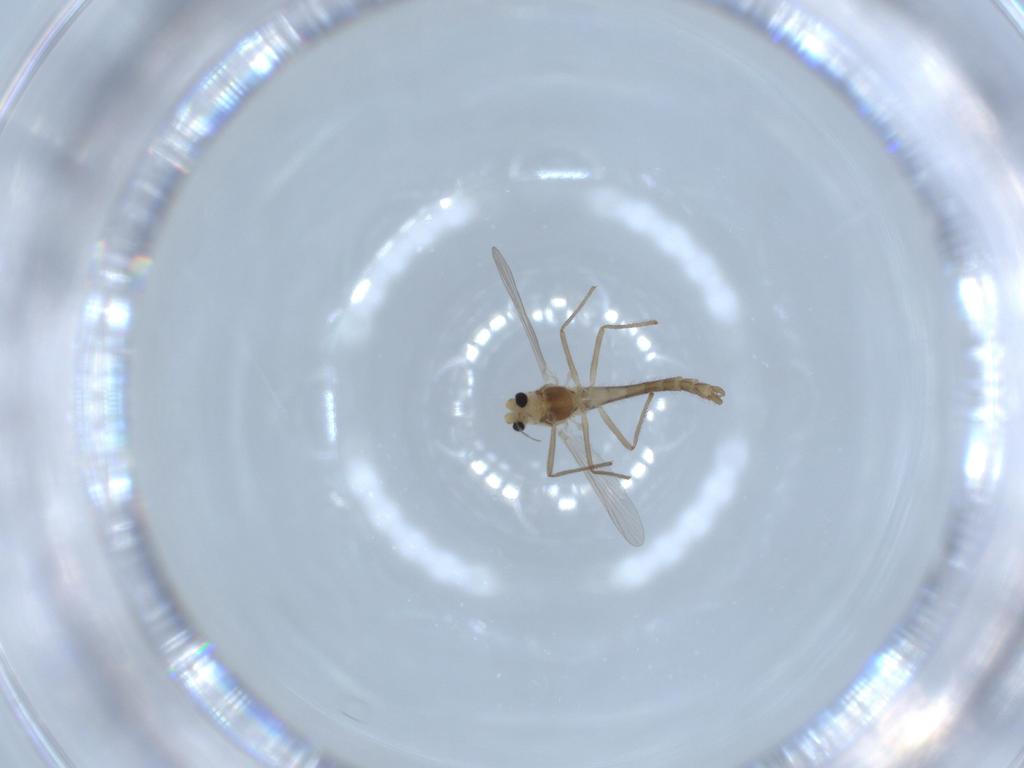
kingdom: Animalia
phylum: Arthropoda
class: Insecta
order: Diptera
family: Chironomidae
